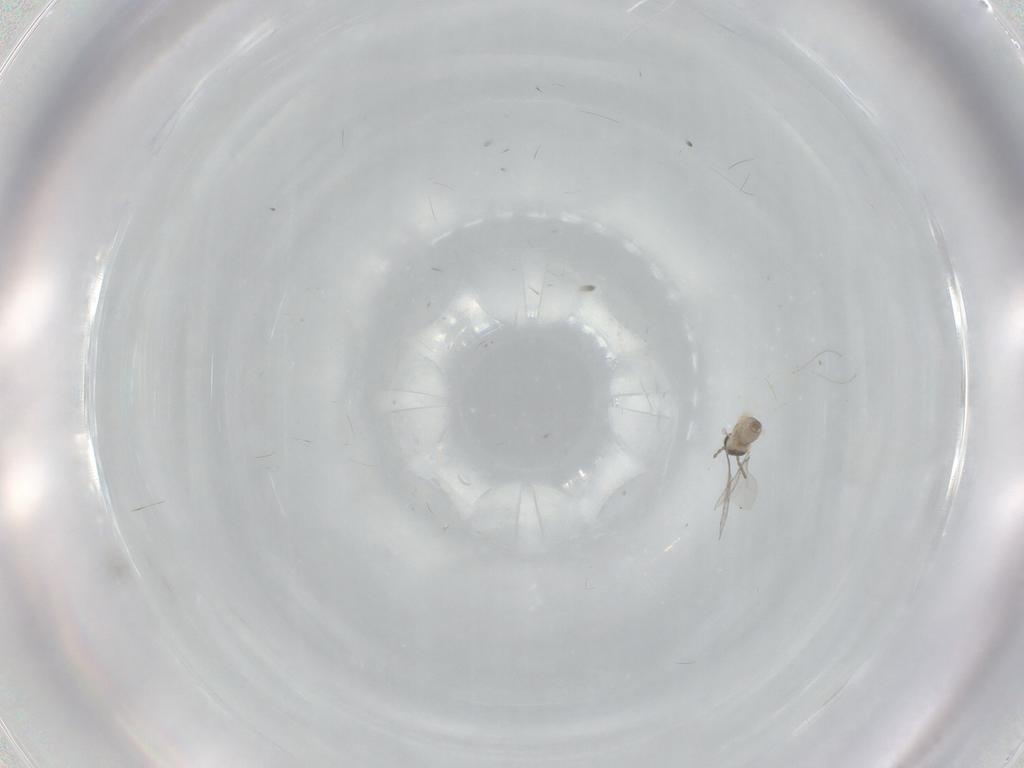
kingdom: Animalia
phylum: Arthropoda
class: Insecta
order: Diptera
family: Cecidomyiidae
